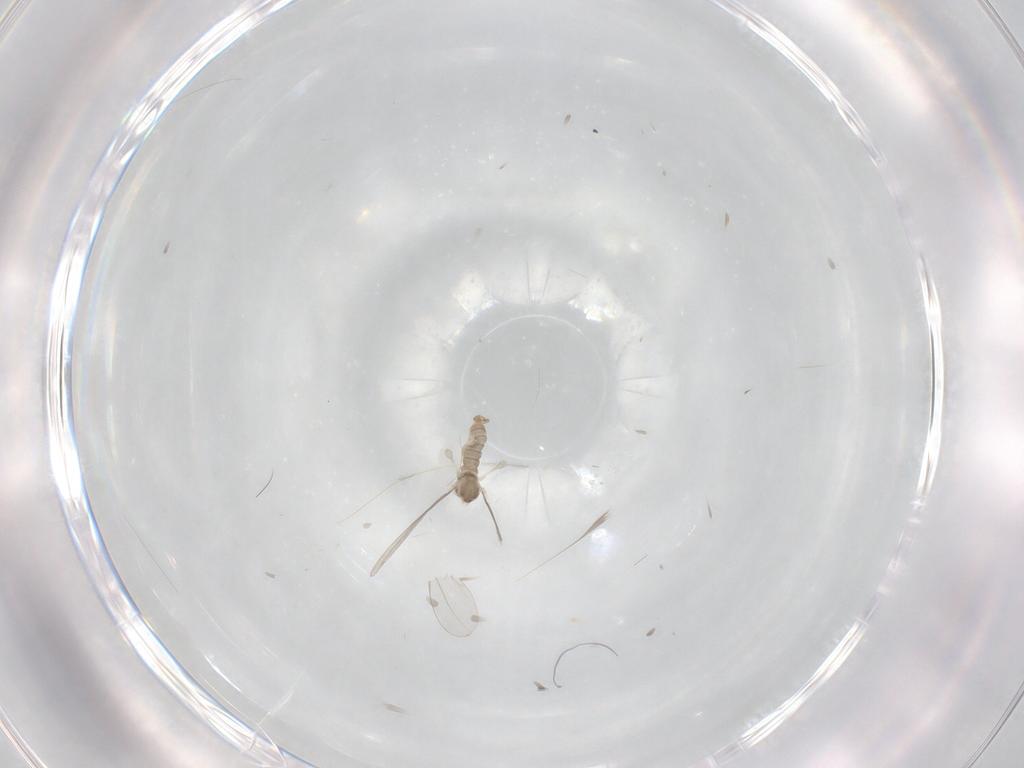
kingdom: Animalia
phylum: Arthropoda
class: Insecta
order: Diptera
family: Cecidomyiidae
